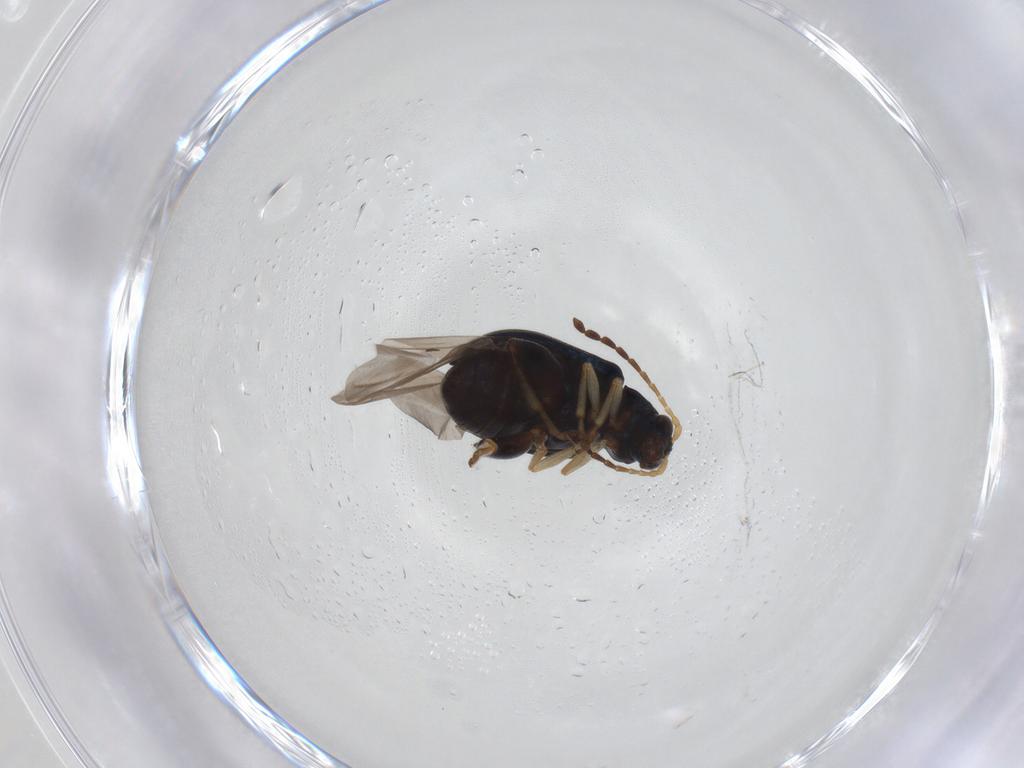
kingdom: Animalia
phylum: Arthropoda
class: Insecta
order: Coleoptera
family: Chrysomelidae
